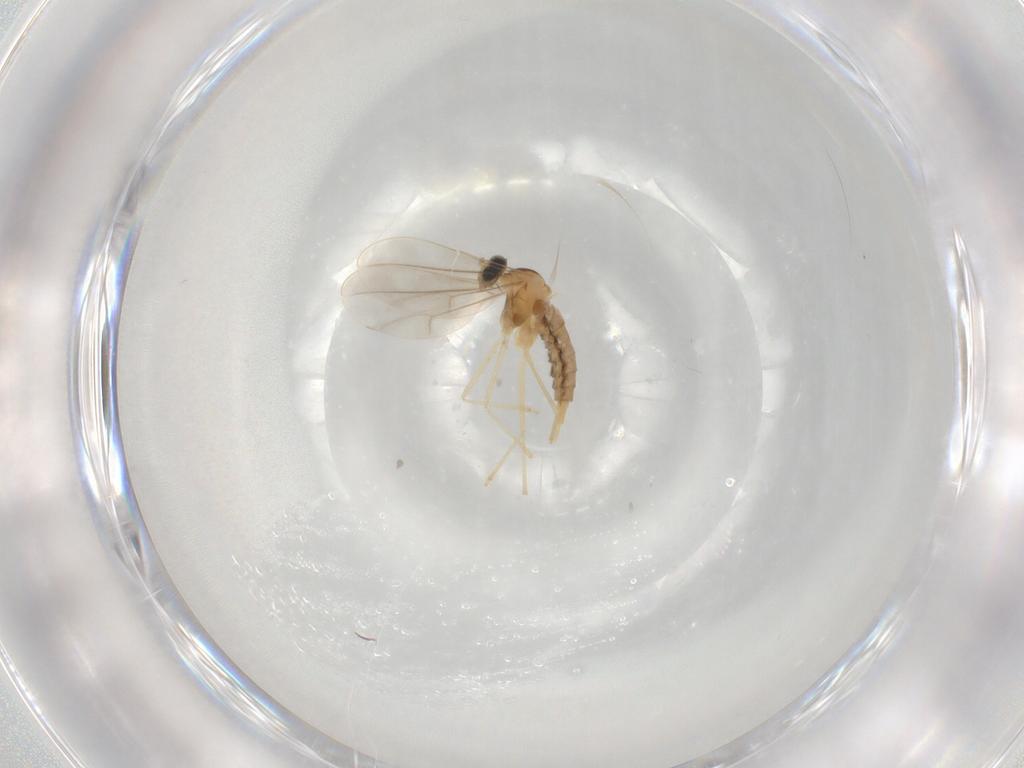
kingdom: Animalia
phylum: Arthropoda
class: Insecta
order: Diptera
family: Cecidomyiidae
